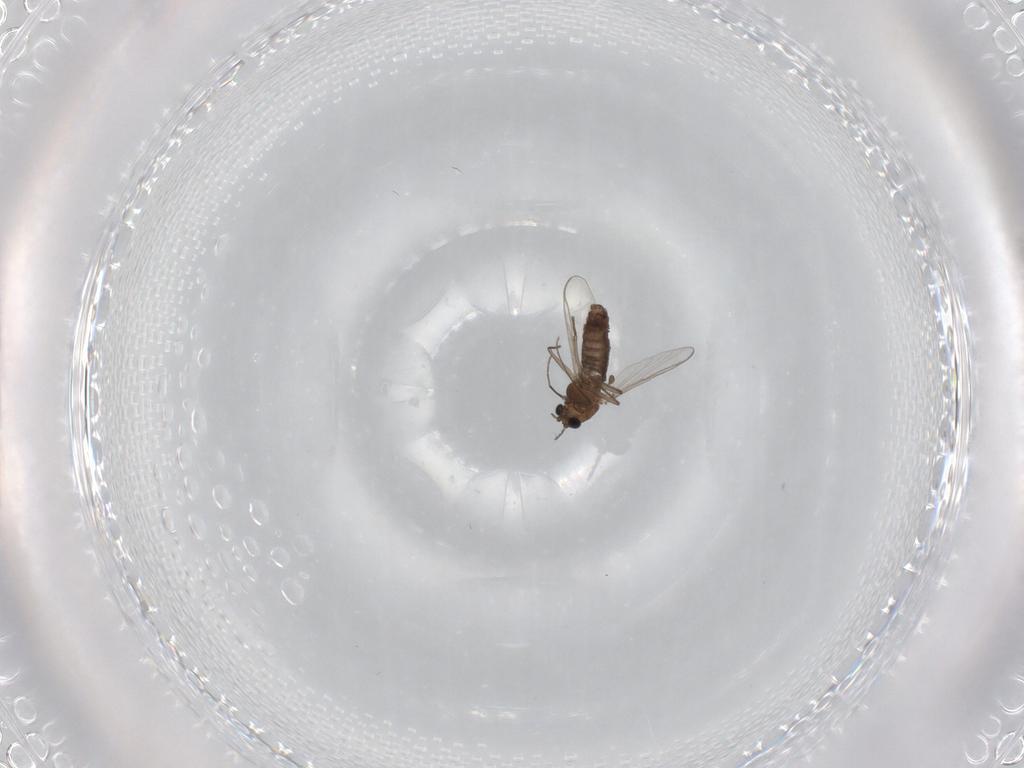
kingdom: Animalia
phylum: Arthropoda
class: Insecta
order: Diptera
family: Chironomidae
